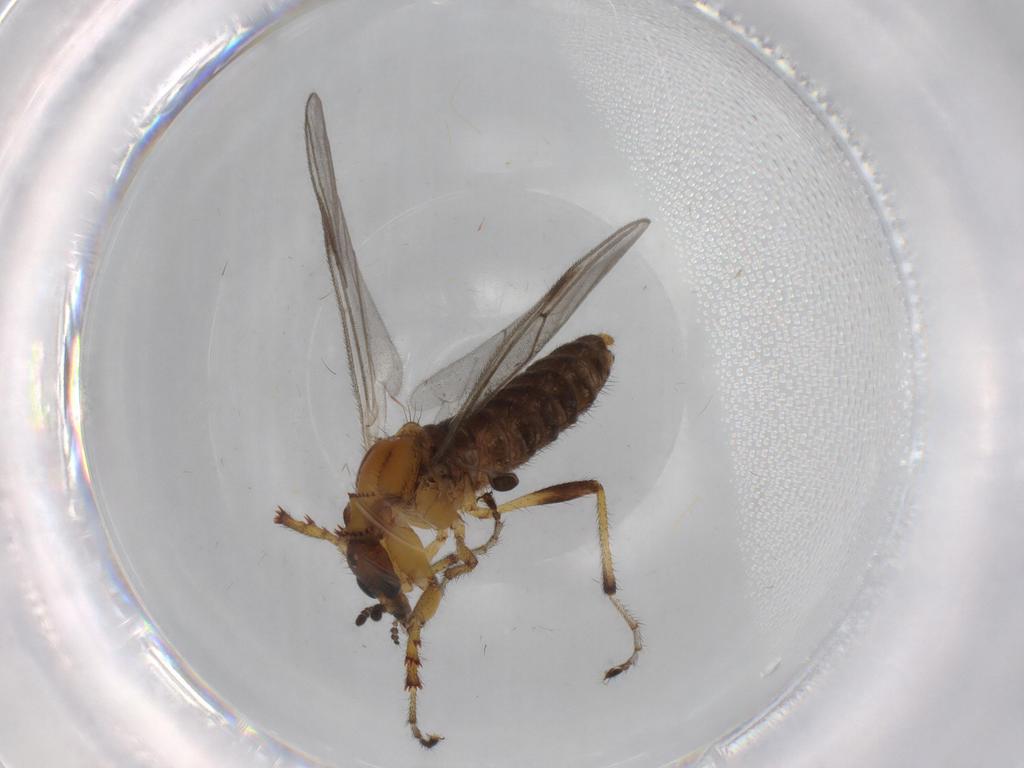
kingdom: Animalia
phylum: Arthropoda
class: Insecta
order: Diptera
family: Bibionidae
